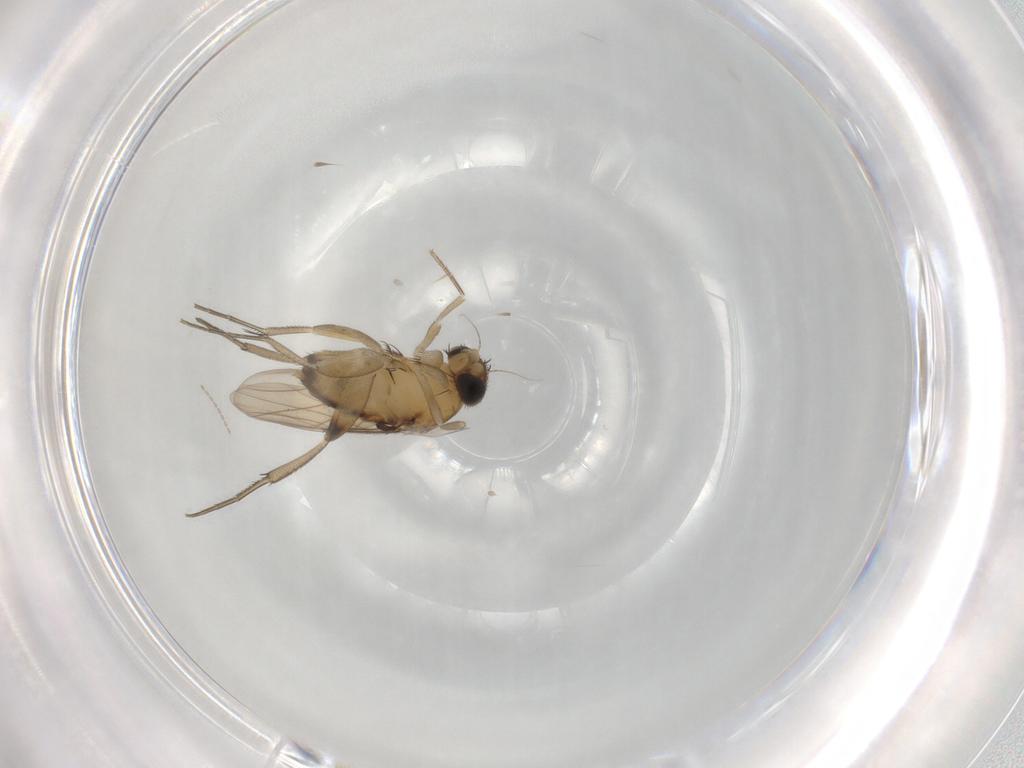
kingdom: Animalia
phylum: Arthropoda
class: Insecta
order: Diptera
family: Phoridae
